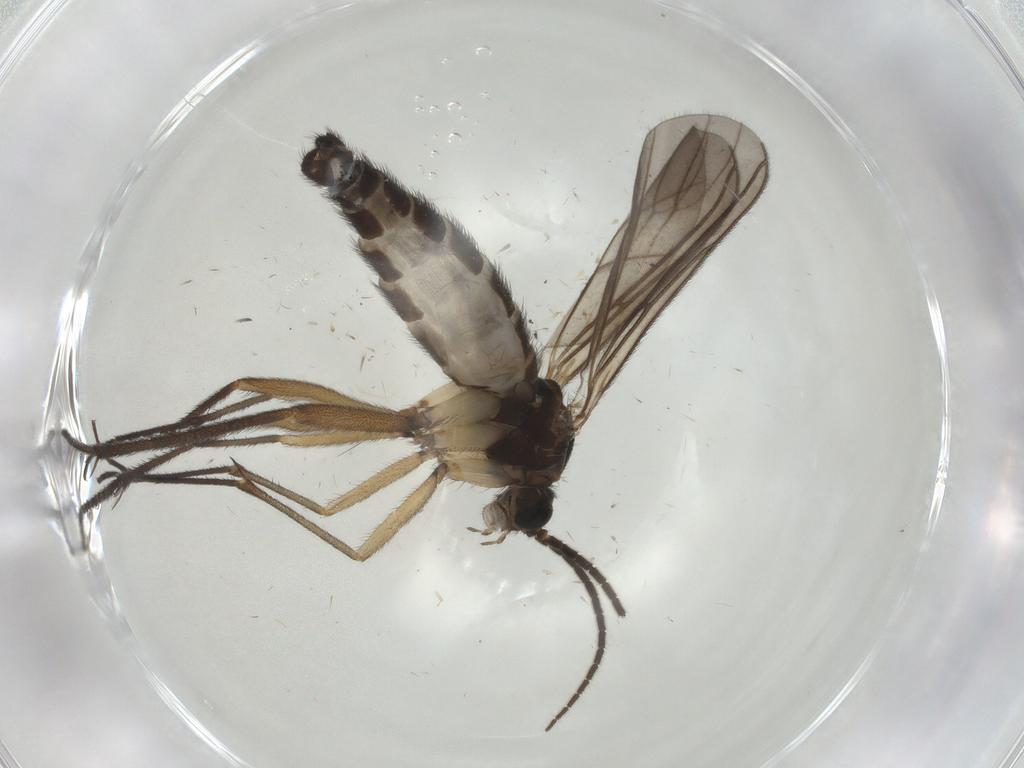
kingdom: Animalia
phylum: Arthropoda
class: Insecta
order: Diptera
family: Sciaridae
